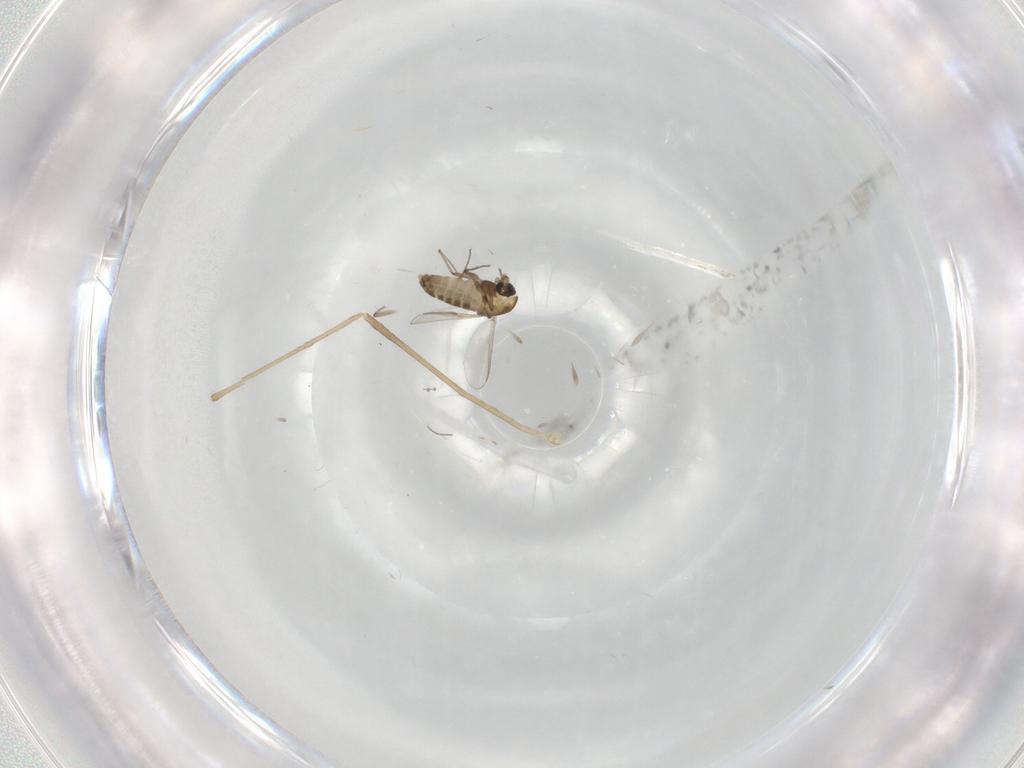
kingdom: Animalia
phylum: Arthropoda
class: Insecta
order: Diptera
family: Chironomidae
